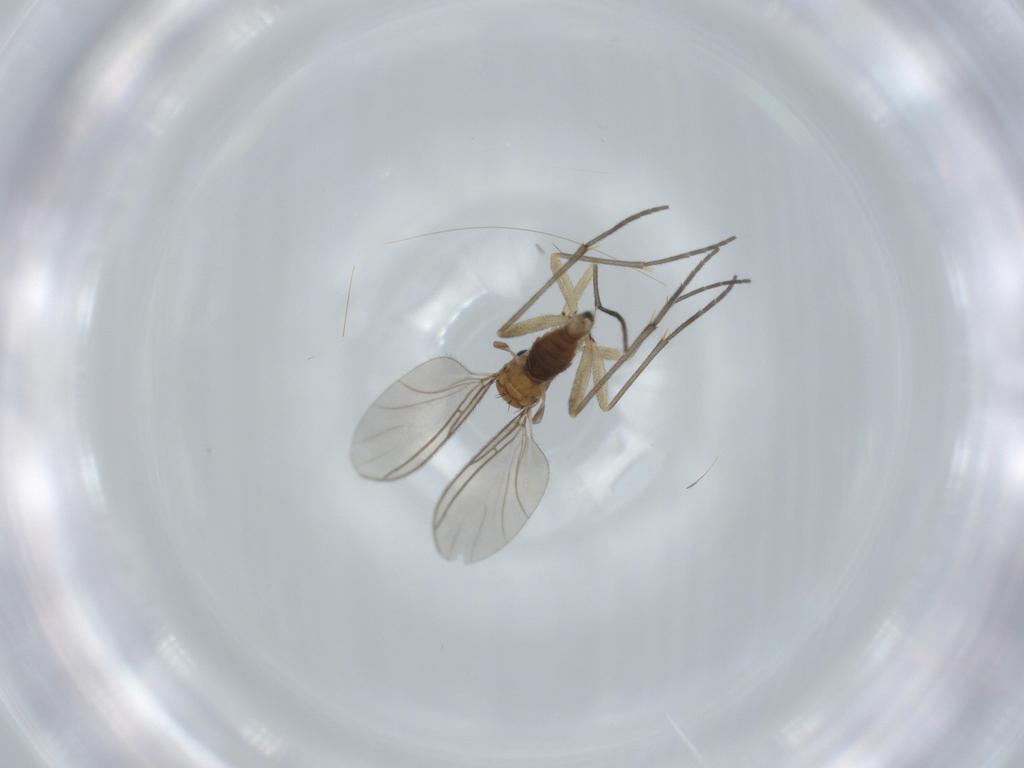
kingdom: Animalia
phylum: Arthropoda
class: Insecta
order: Diptera
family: Sciaridae
